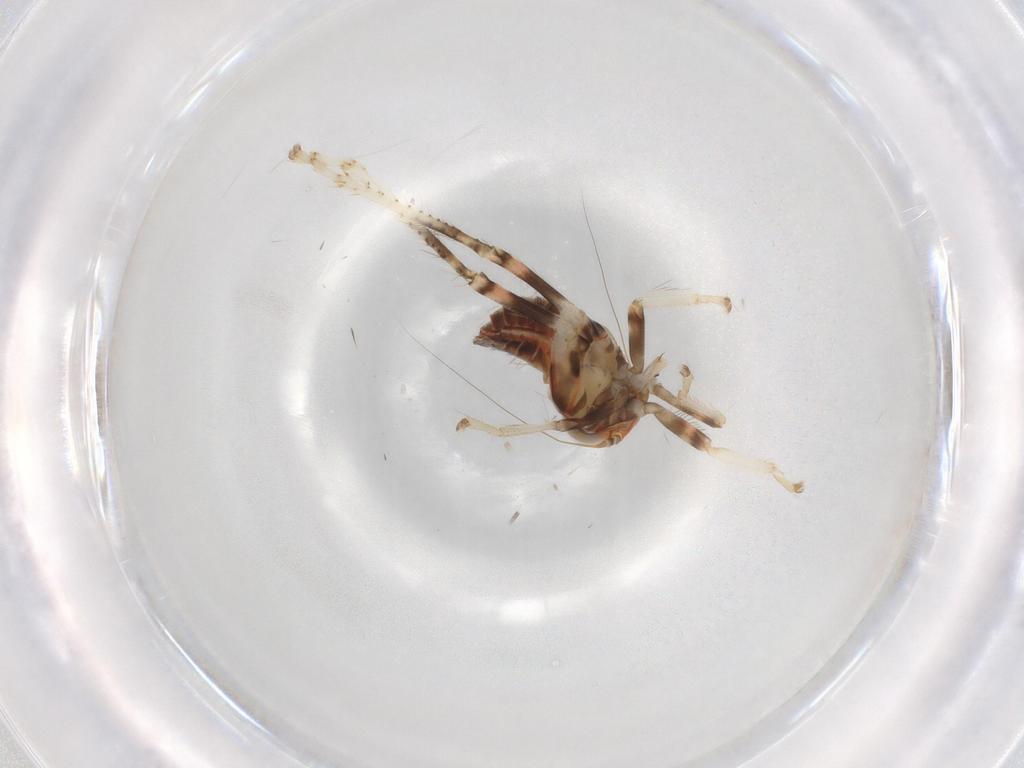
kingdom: Animalia
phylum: Arthropoda
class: Insecta
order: Hemiptera
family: Cicadellidae
